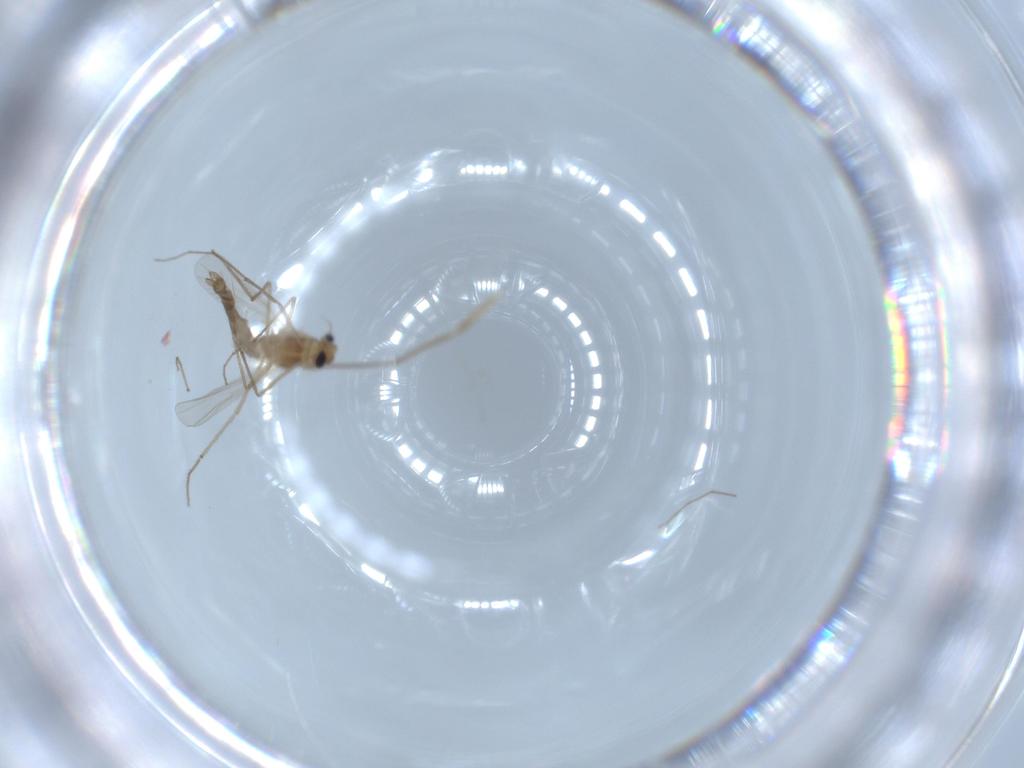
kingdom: Animalia
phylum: Arthropoda
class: Insecta
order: Diptera
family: Chironomidae
